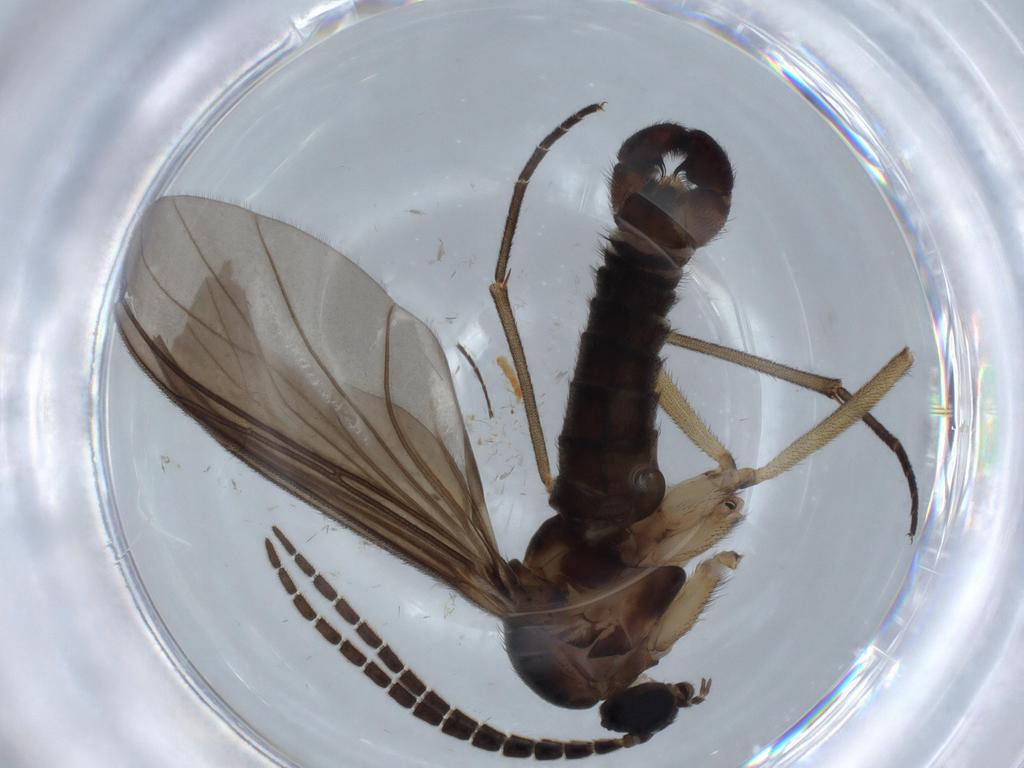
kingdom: Animalia
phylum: Arthropoda
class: Insecta
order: Diptera
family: Sciaridae
